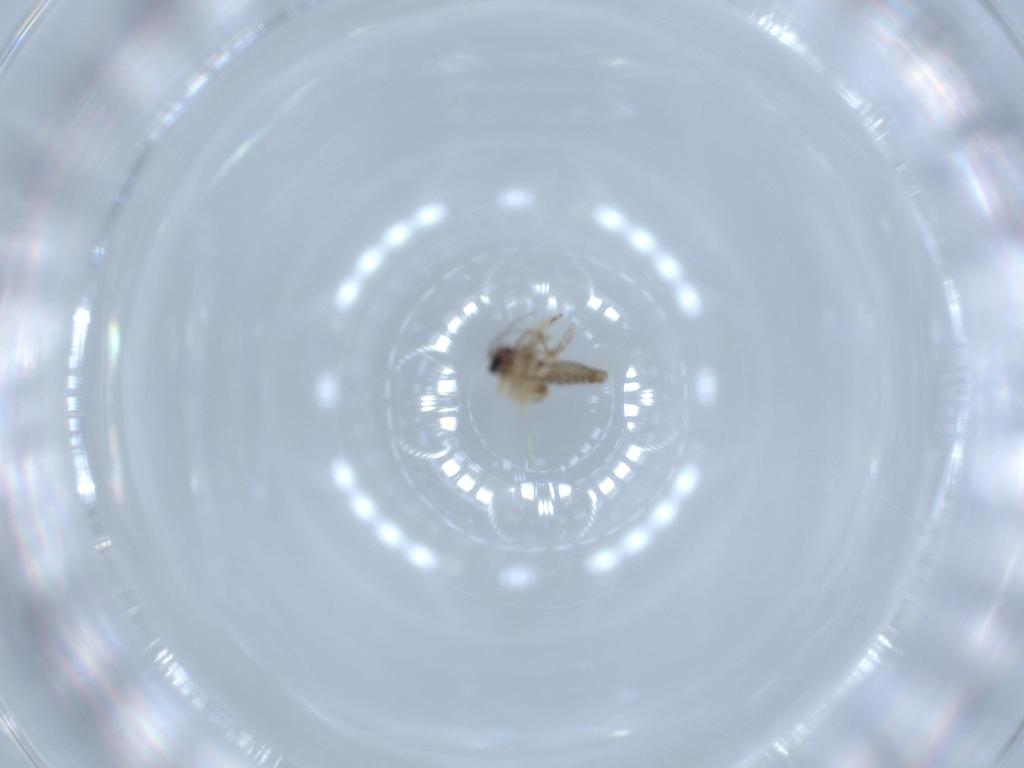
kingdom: Animalia
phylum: Arthropoda
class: Insecta
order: Diptera
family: Ceratopogonidae
